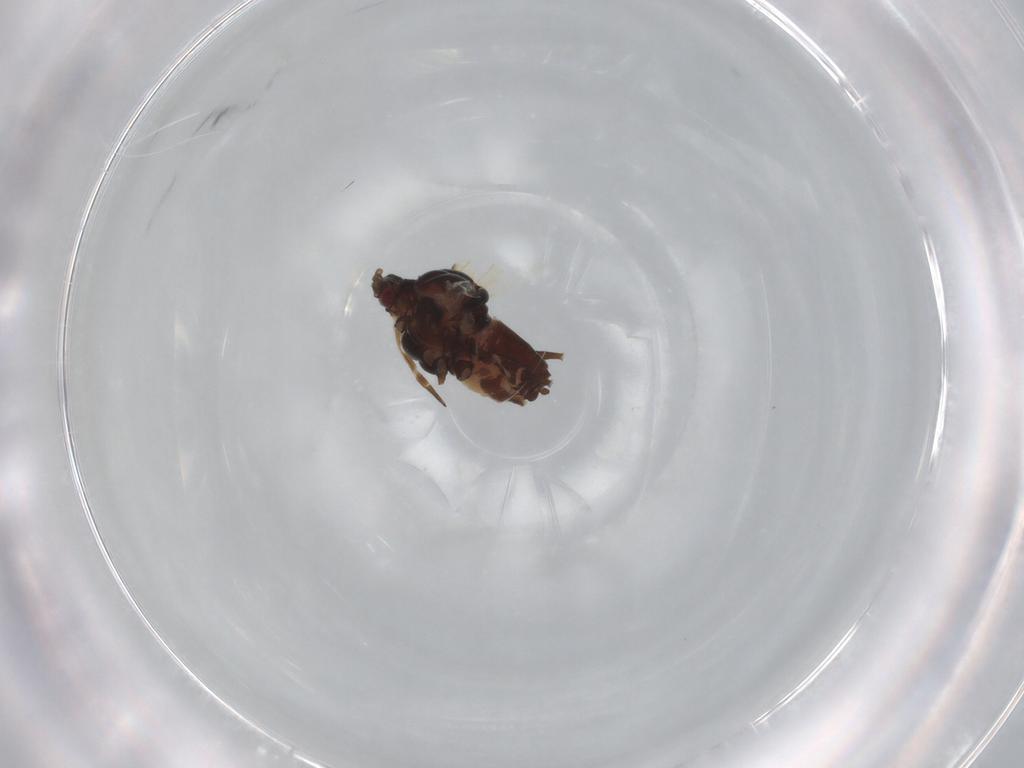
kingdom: Animalia
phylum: Arthropoda
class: Insecta
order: Hemiptera
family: Aphididae
